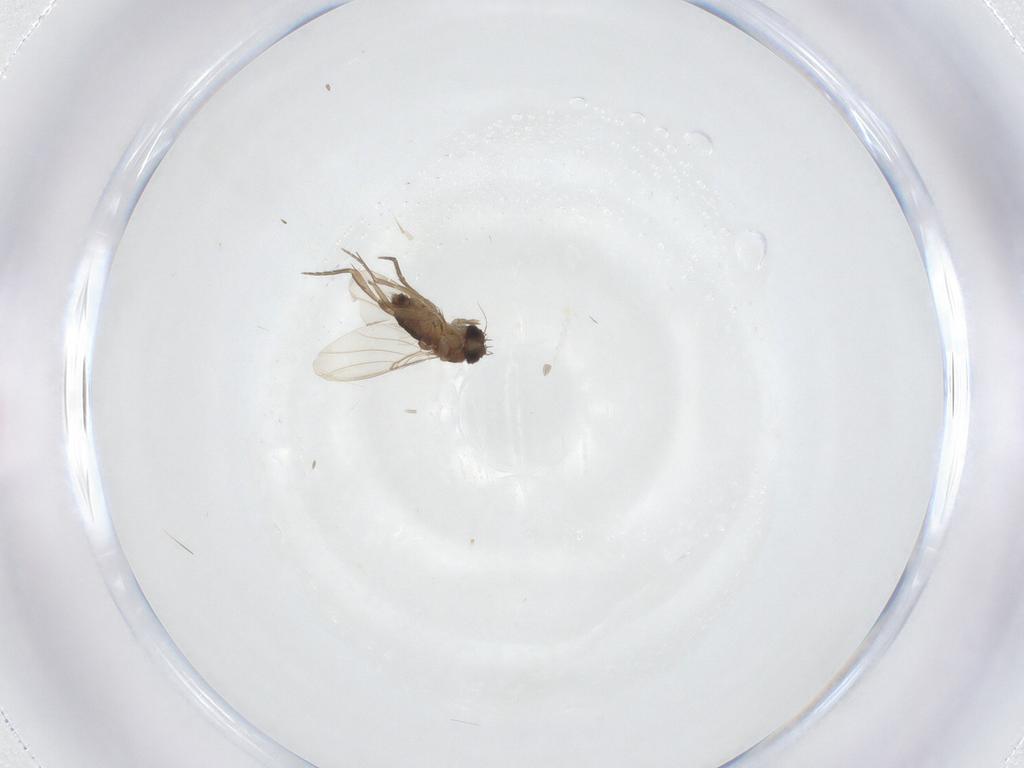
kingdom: Animalia
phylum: Arthropoda
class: Insecta
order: Diptera
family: Phoridae
